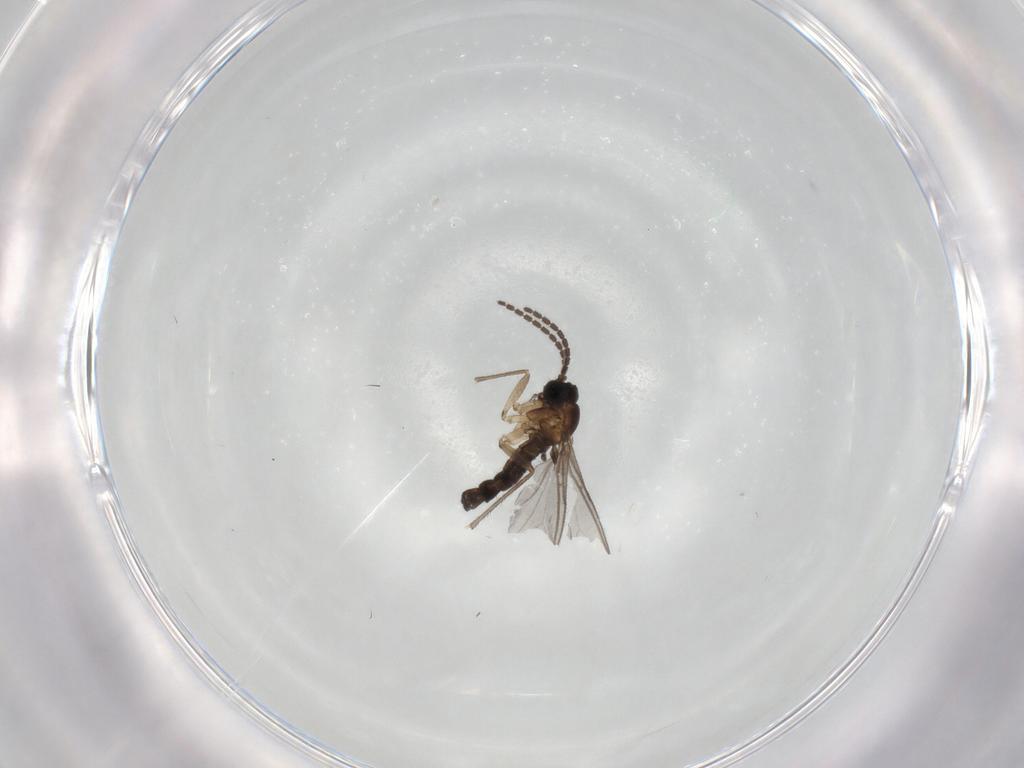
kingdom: Animalia
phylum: Arthropoda
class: Insecta
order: Diptera
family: Sciaridae
